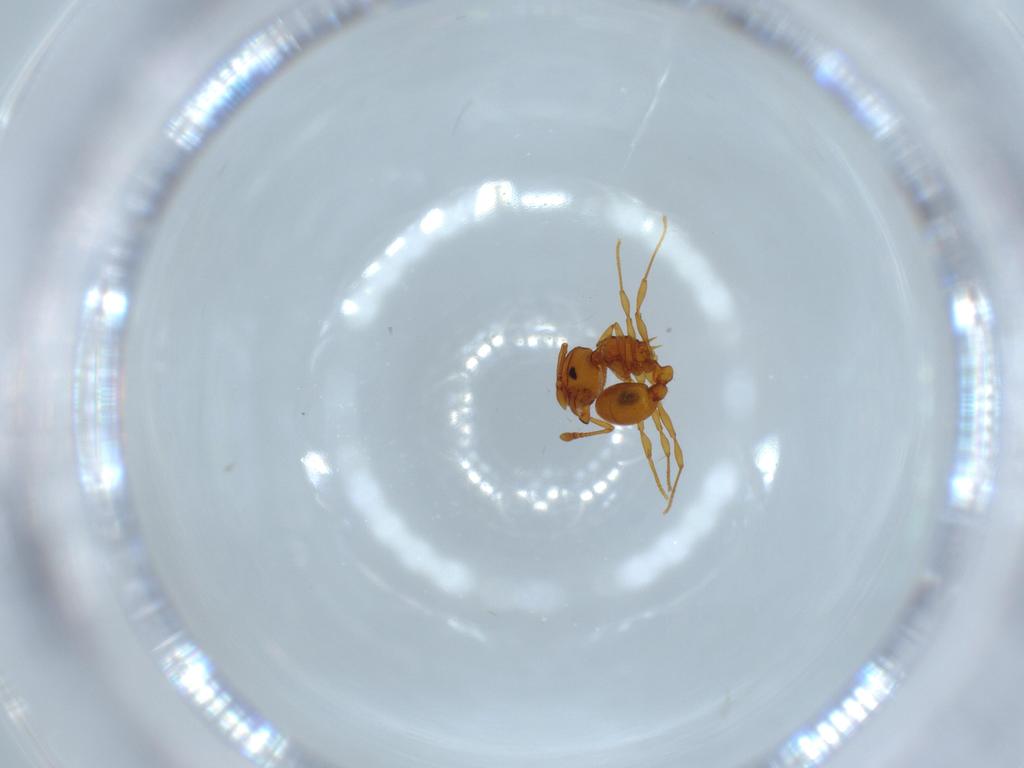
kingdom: Animalia
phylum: Arthropoda
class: Insecta
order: Hymenoptera
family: Formicidae
